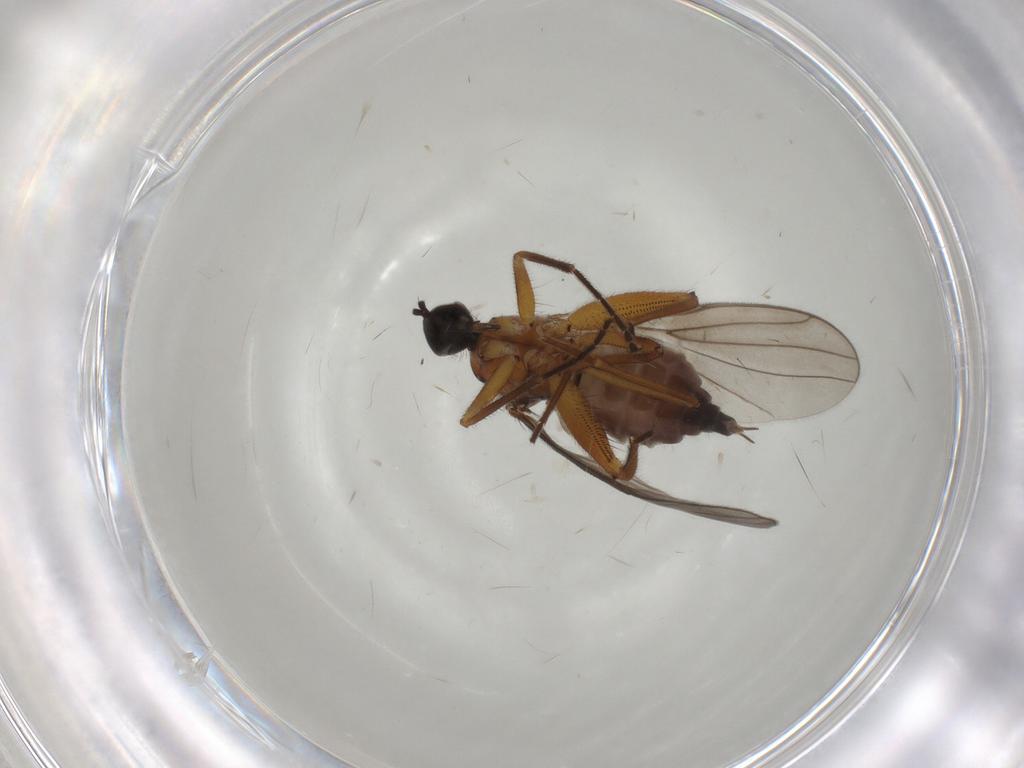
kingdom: Animalia
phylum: Arthropoda
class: Insecta
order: Diptera
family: Hybotidae
